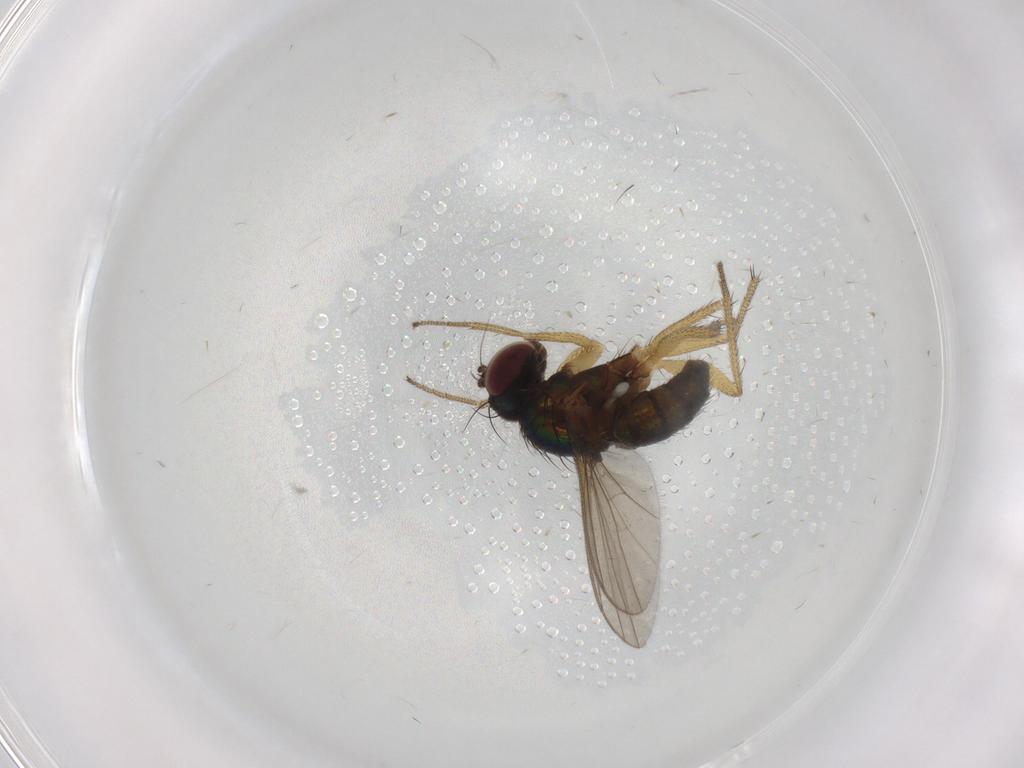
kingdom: Animalia
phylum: Arthropoda
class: Insecta
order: Diptera
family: Dolichopodidae
